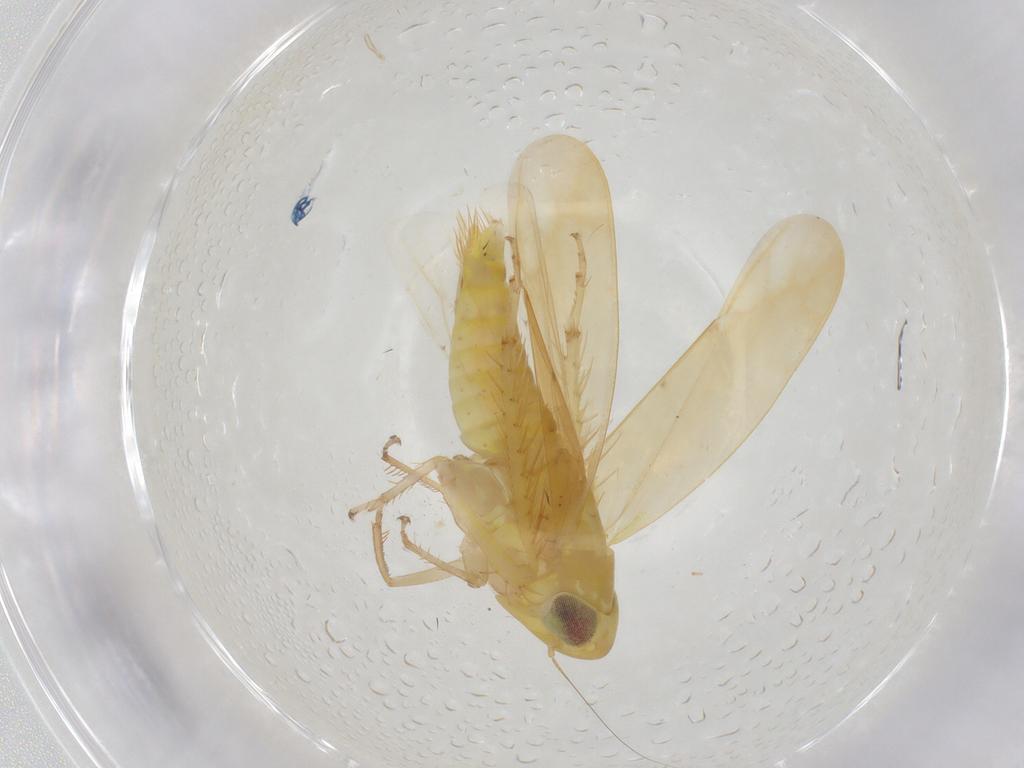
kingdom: Animalia
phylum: Arthropoda
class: Insecta
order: Hemiptera
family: Cicadellidae
